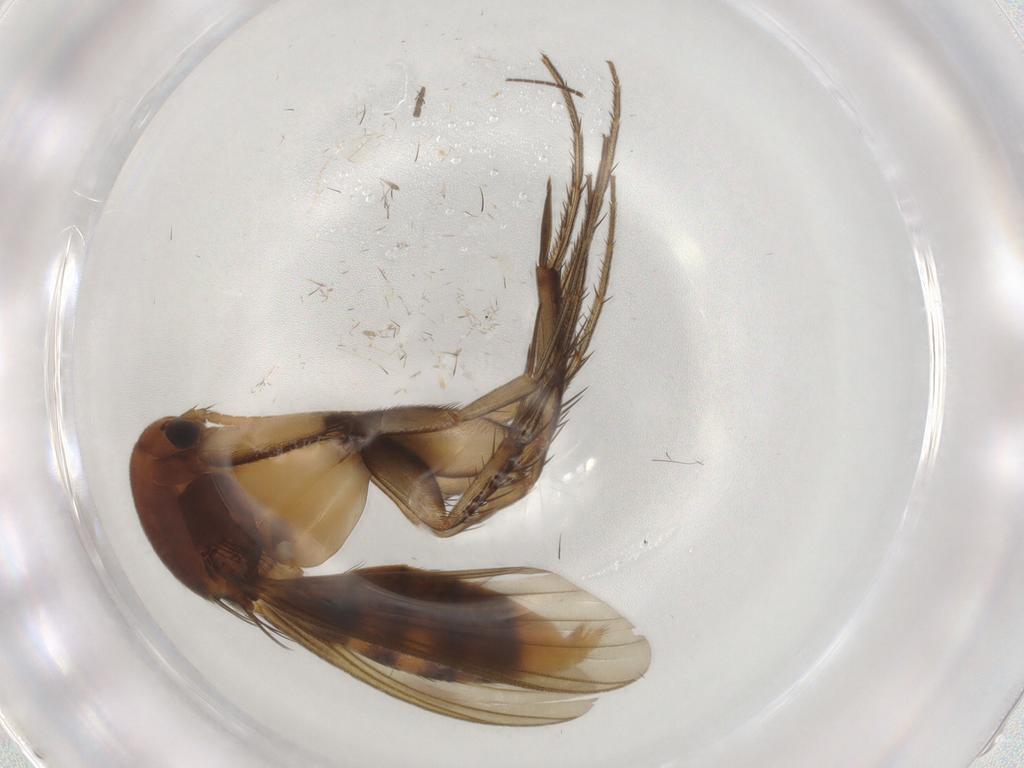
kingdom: Animalia
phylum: Arthropoda
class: Insecta
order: Diptera
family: Mycetophilidae
